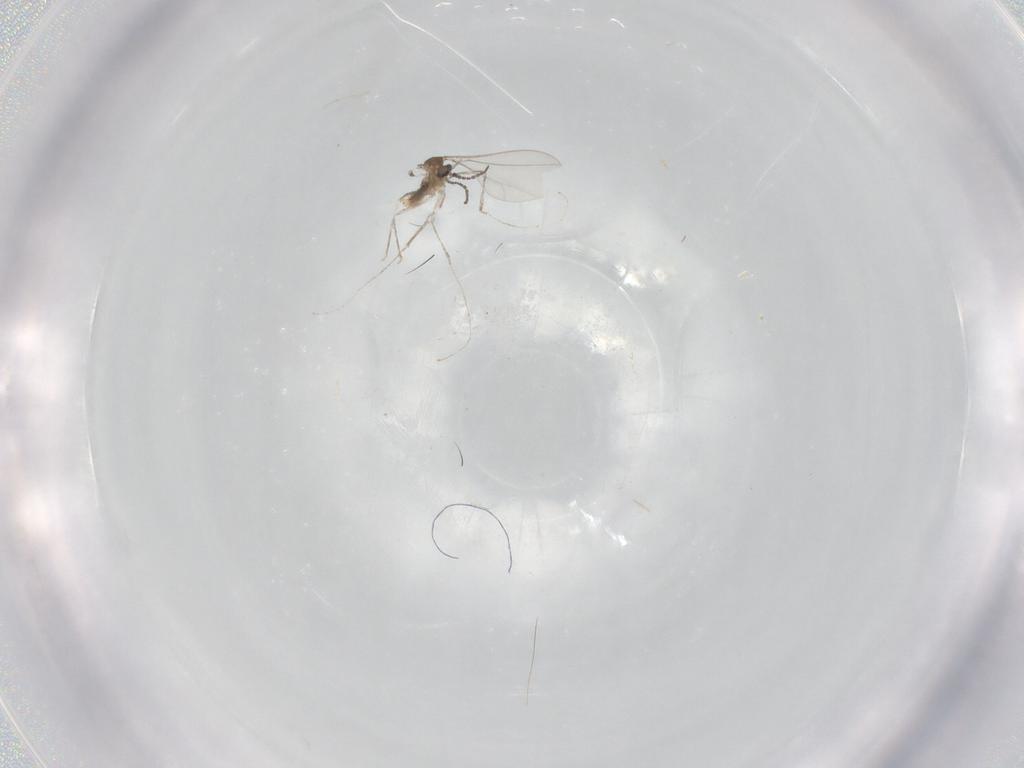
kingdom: Animalia
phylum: Arthropoda
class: Insecta
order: Diptera
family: Cecidomyiidae
